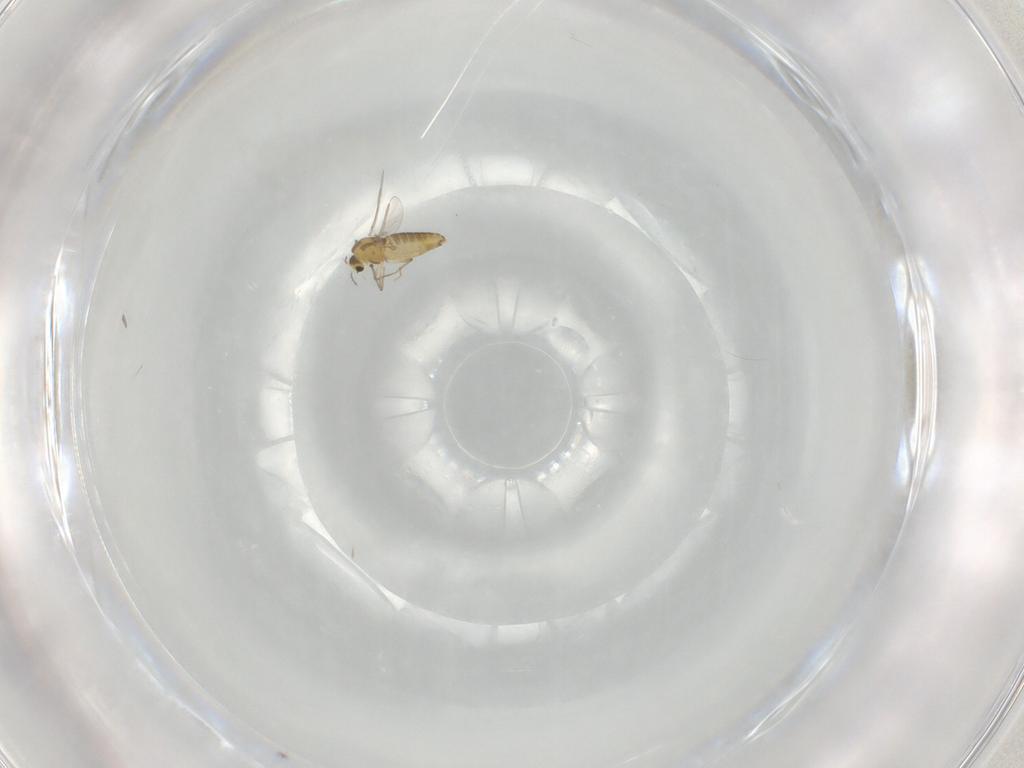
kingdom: Animalia
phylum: Arthropoda
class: Insecta
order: Diptera
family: Chironomidae
